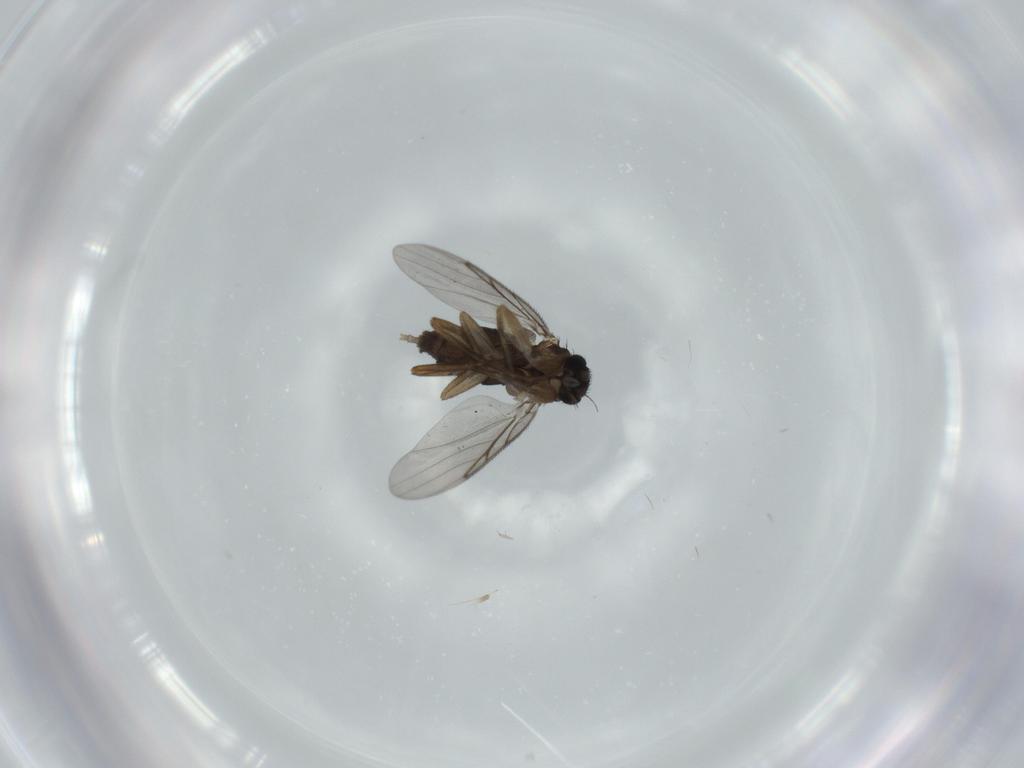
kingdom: Animalia
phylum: Arthropoda
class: Insecta
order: Diptera
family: Phoridae
